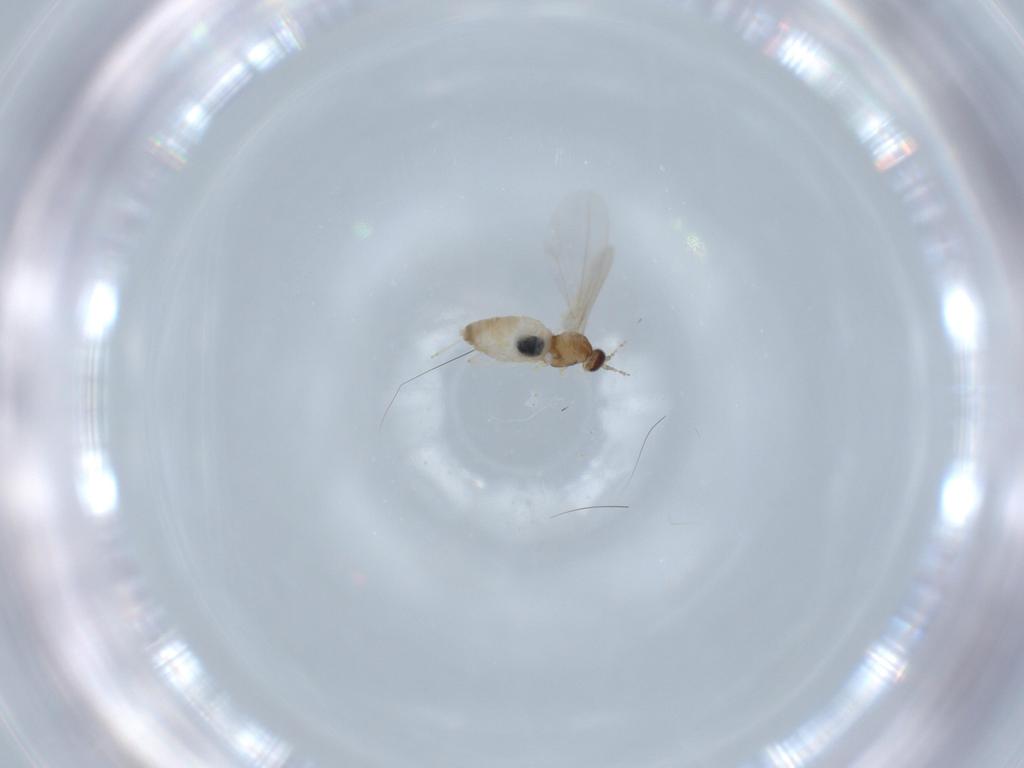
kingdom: Animalia
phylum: Arthropoda
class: Insecta
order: Diptera
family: Cecidomyiidae
